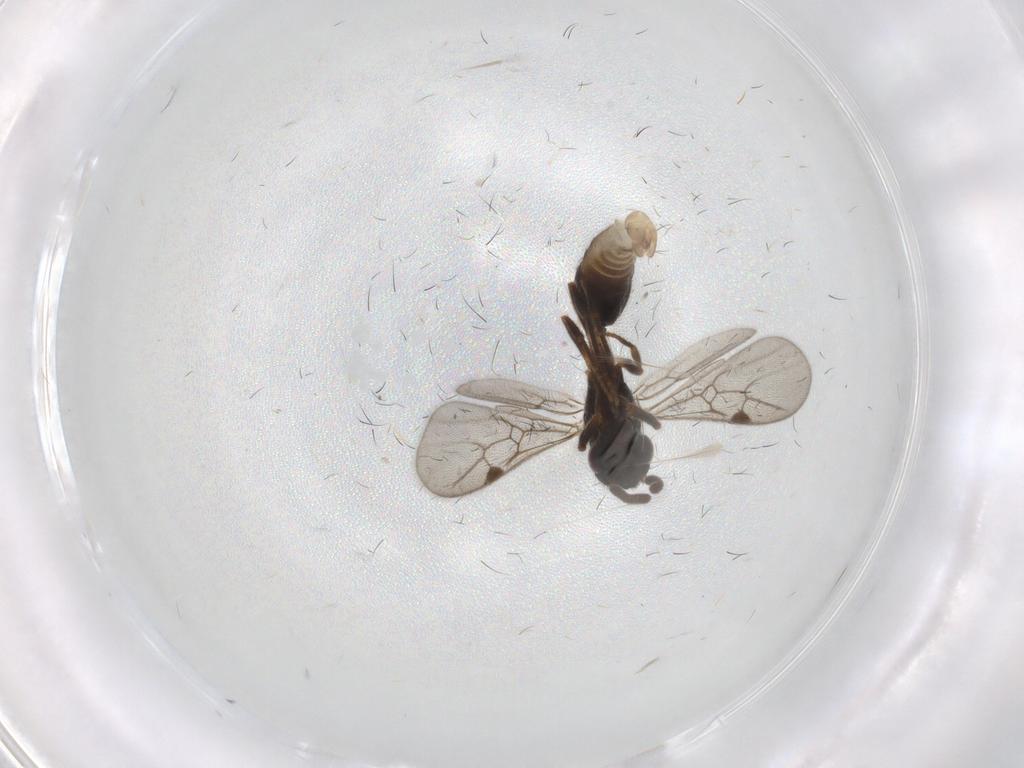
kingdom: Animalia
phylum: Arthropoda
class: Insecta
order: Hymenoptera
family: Formicidae
